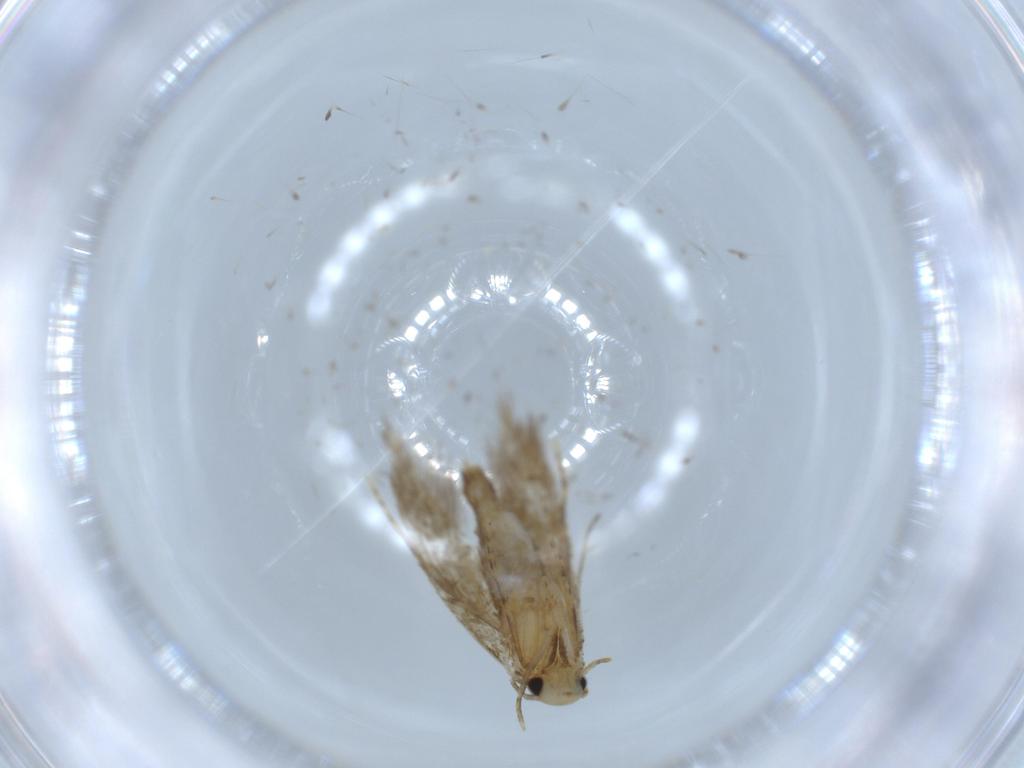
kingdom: Animalia
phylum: Arthropoda
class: Insecta
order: Lepidoptera
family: Tineidae
